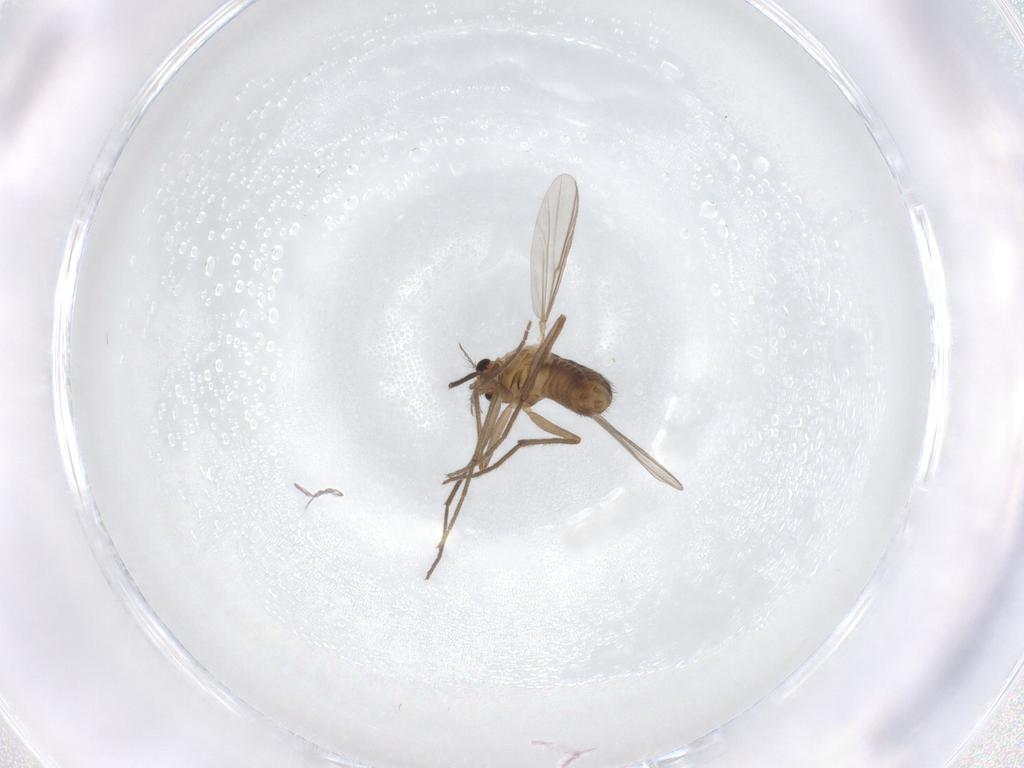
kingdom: Animalia
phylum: Arthropoda
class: Insecta
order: Diptera
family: Chironomidae
